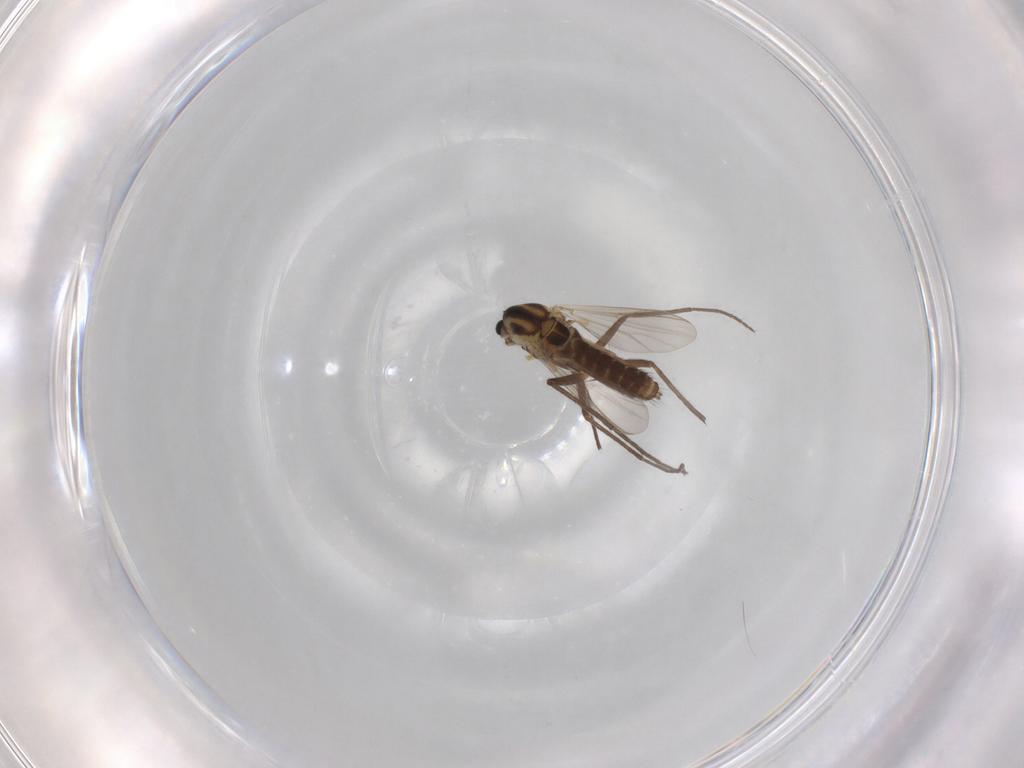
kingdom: Animalia
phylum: Arthropoda
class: Insecta
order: Diptera
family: Chironomidae
